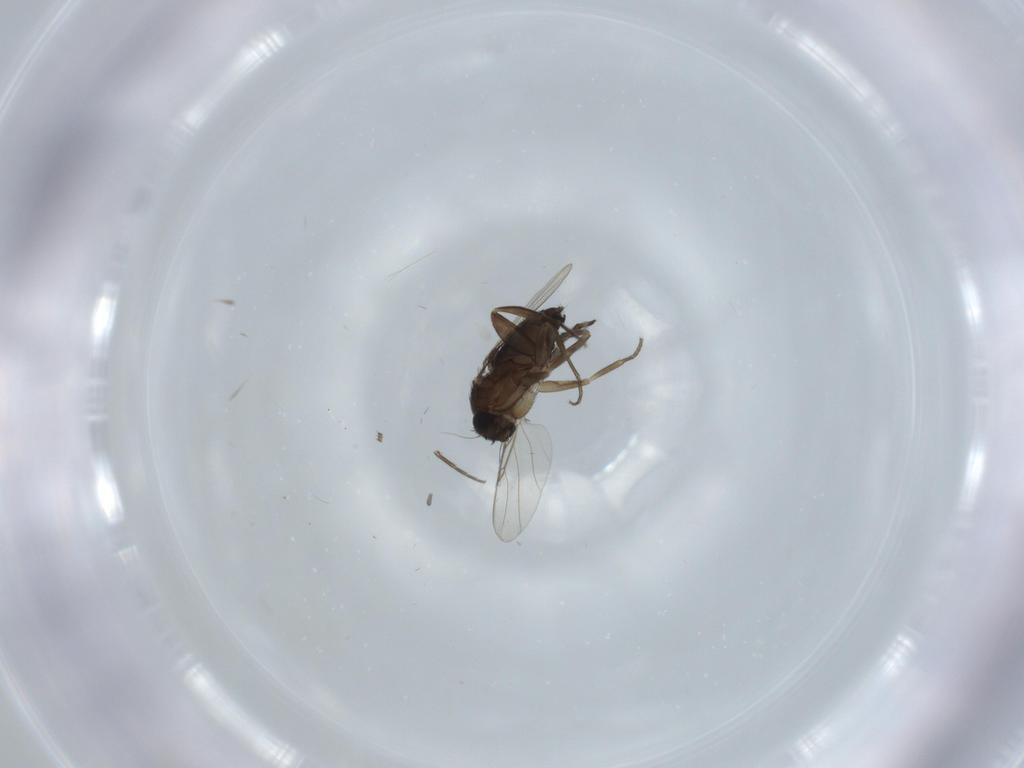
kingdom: Animalia
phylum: Arthropoda
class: Insecta
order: Diptera
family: Phoridae
